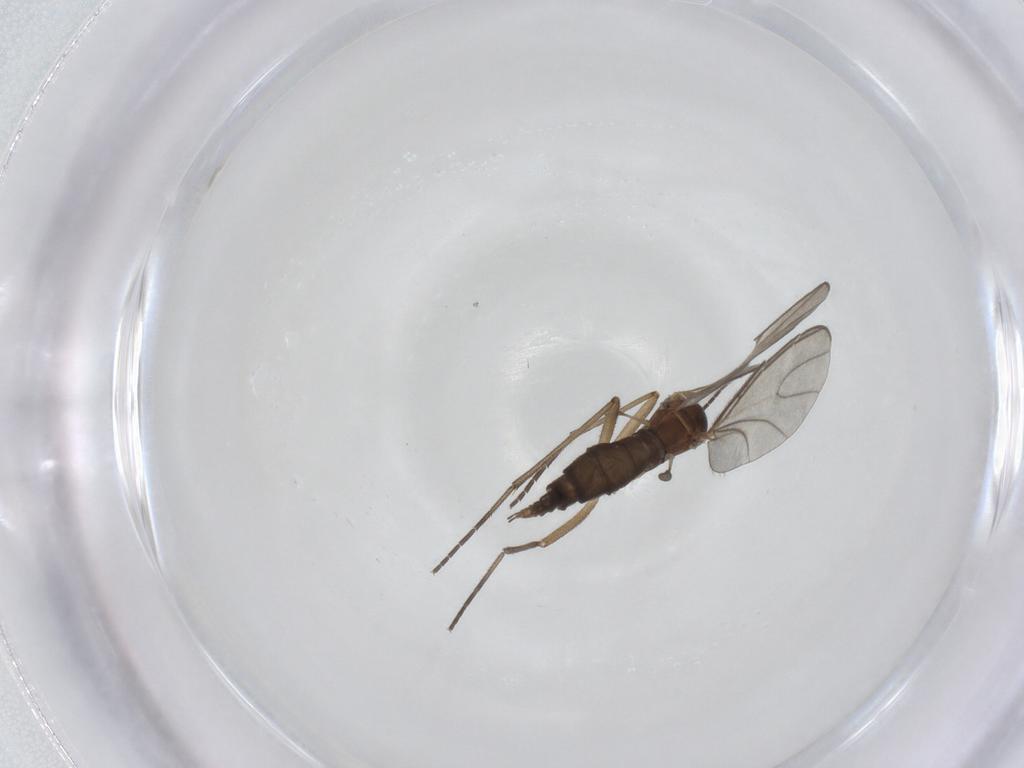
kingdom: Animalia
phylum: Arthropoda
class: Insecta
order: Diptera
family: Sciaridae
